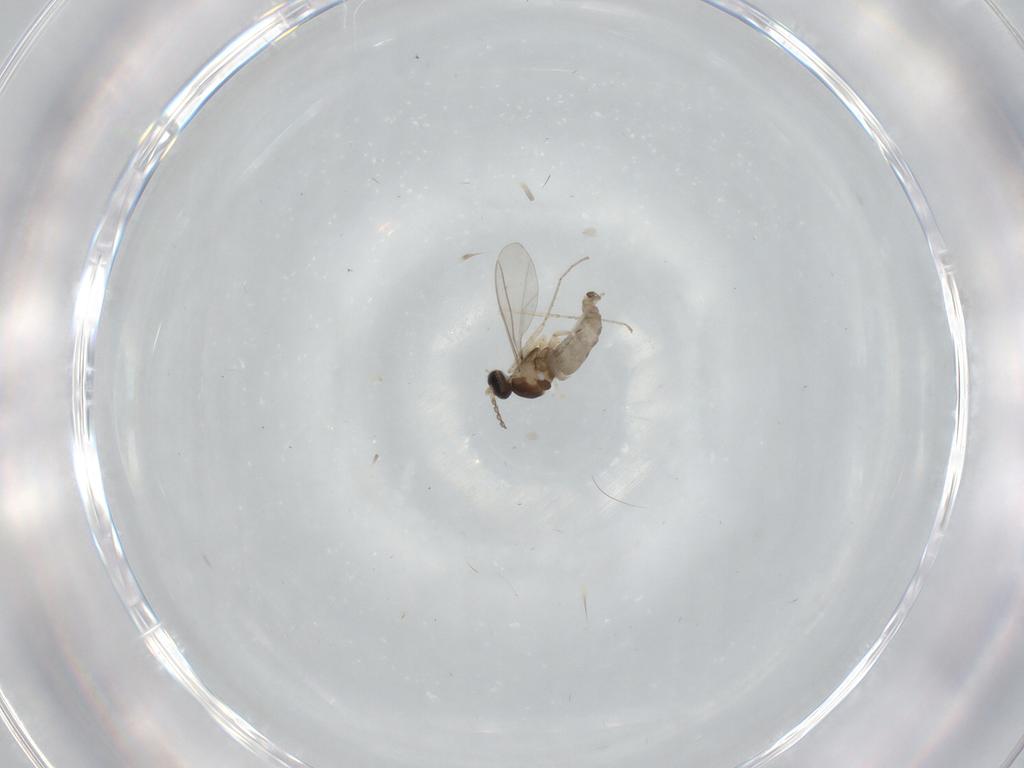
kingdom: Animalia
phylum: Arthropoda
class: Insecta
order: Diptera
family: Cecidomyiidae
